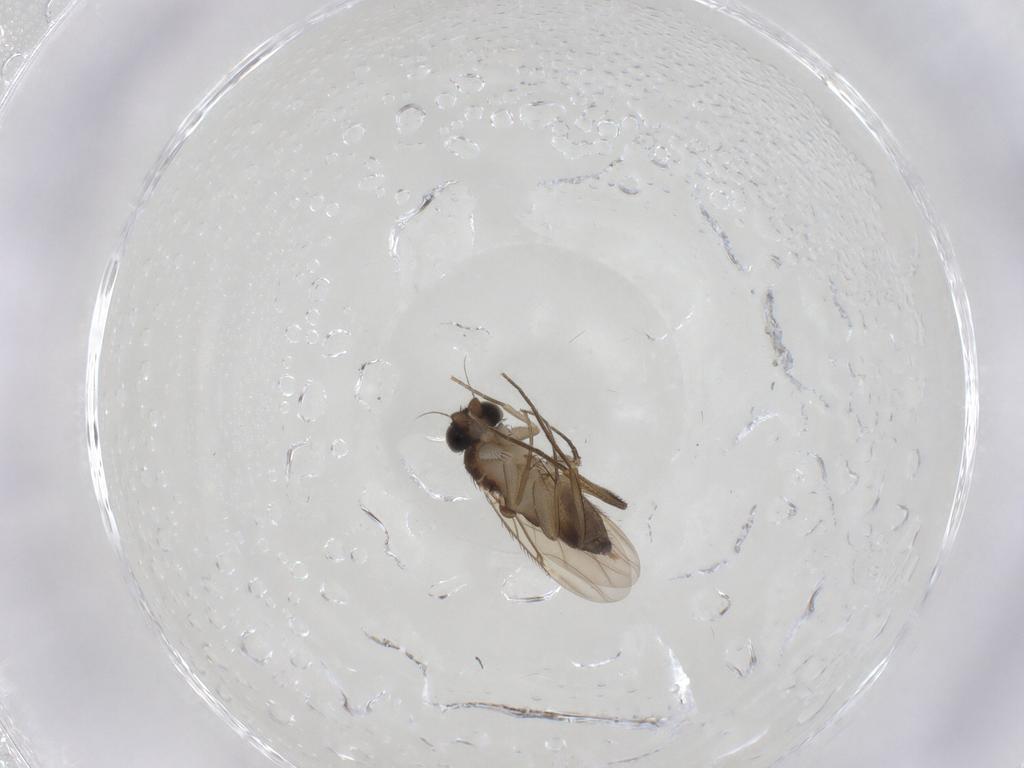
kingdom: Animalia
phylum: Arthropoda
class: Insecta
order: Diptera
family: Phoridae
